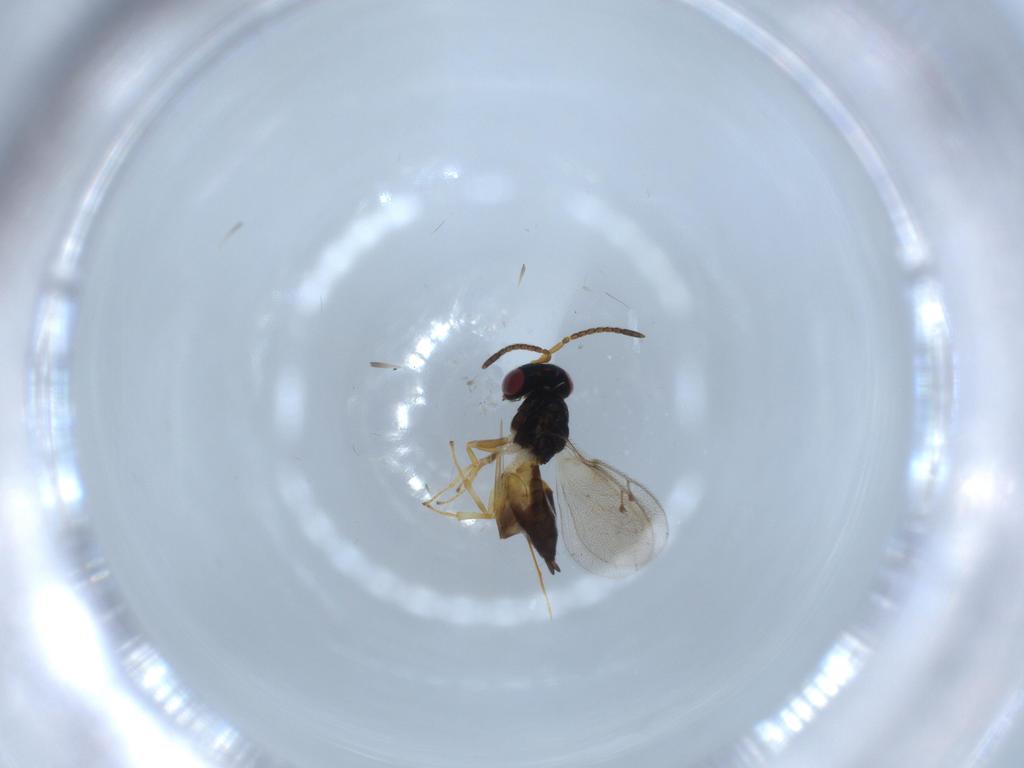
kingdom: Animalia
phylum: Arthropoda
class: Insecta
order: Hymenoptera
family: Pteromalidae
